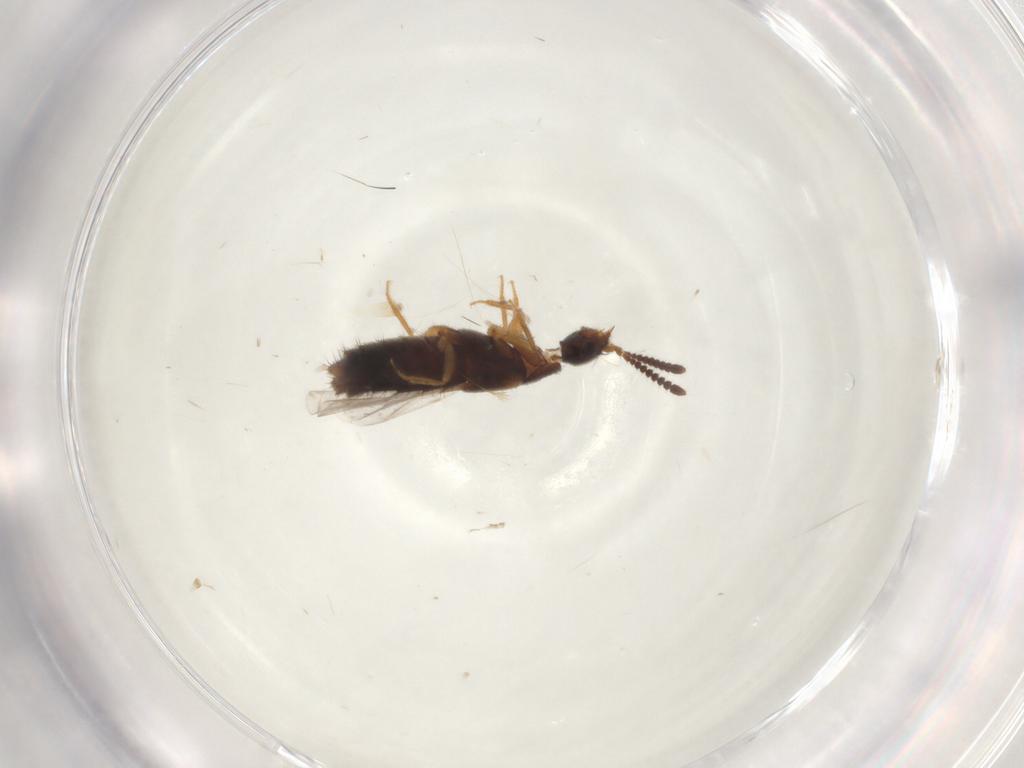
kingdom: Animalia
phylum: Arthropoda
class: Insecta
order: Coleoptera
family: Staphylinidae
